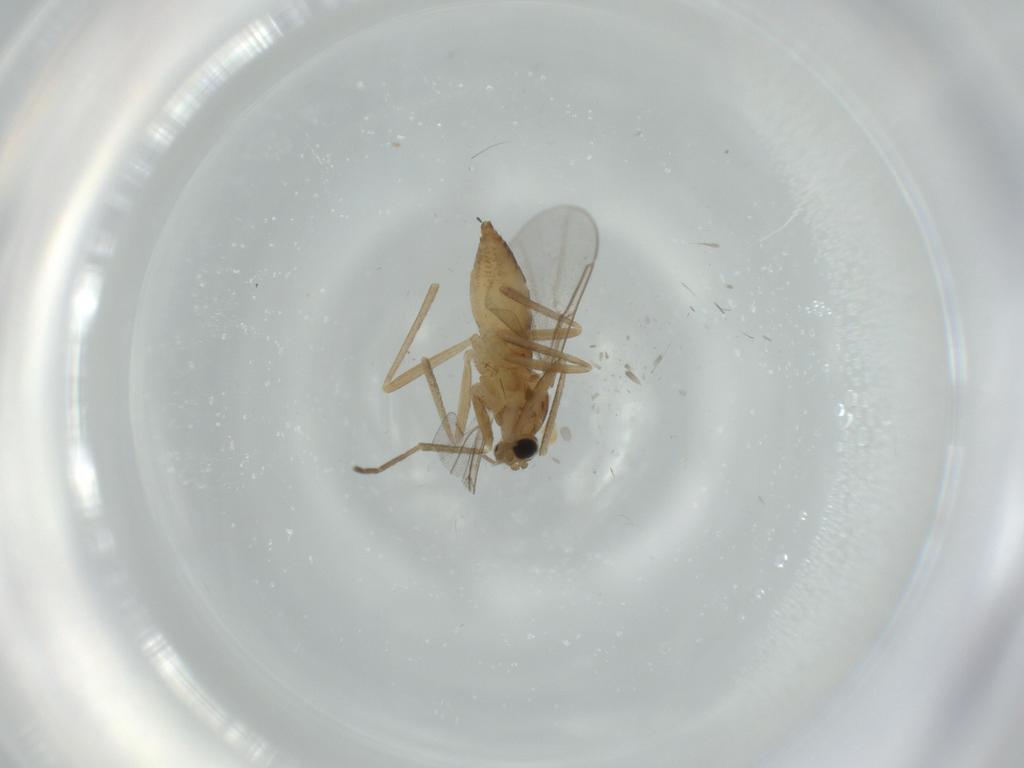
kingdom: Animalia
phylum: Arthropoda
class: Insecta
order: Diptera
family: Cecidomyiidae
